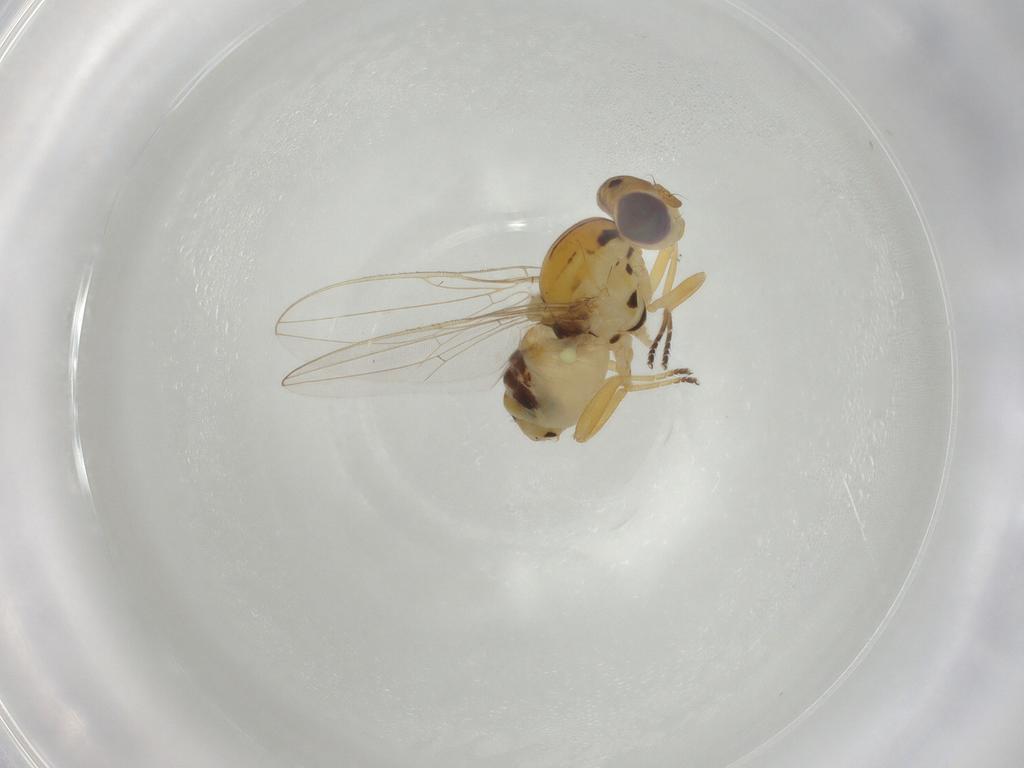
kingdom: Animalia
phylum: Arthropoda
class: Insecta
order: Diptera
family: Asteiidae
